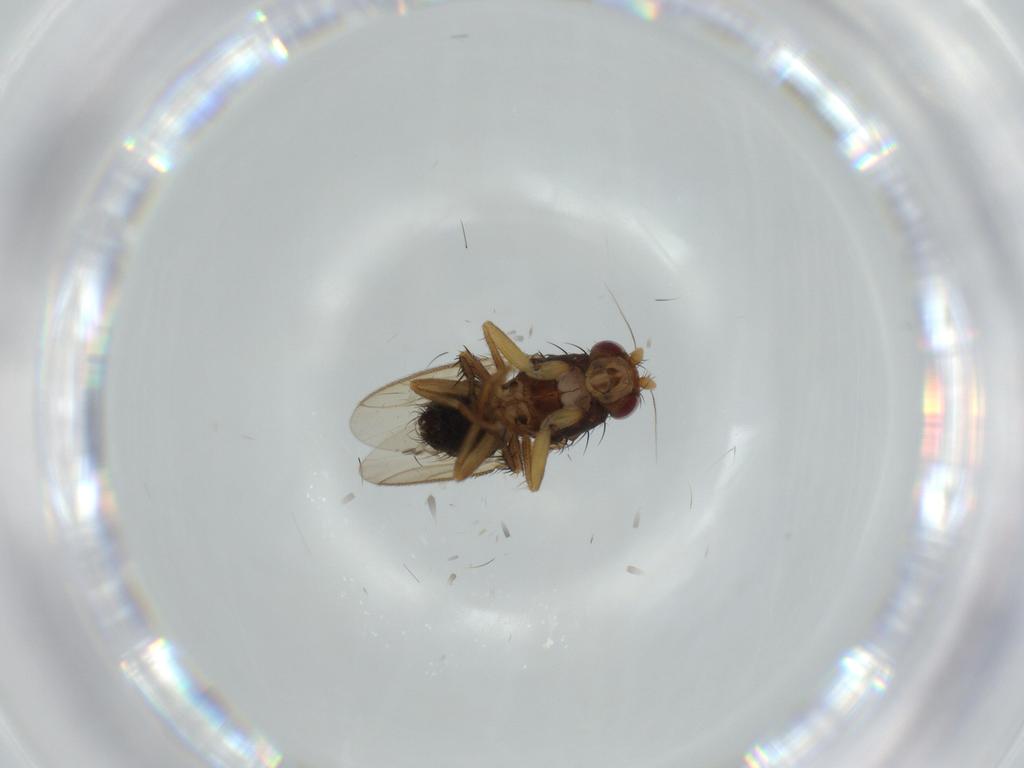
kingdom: Animalia
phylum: Arthropoda
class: Insecta
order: Diptera
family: Sphaeroceridae
